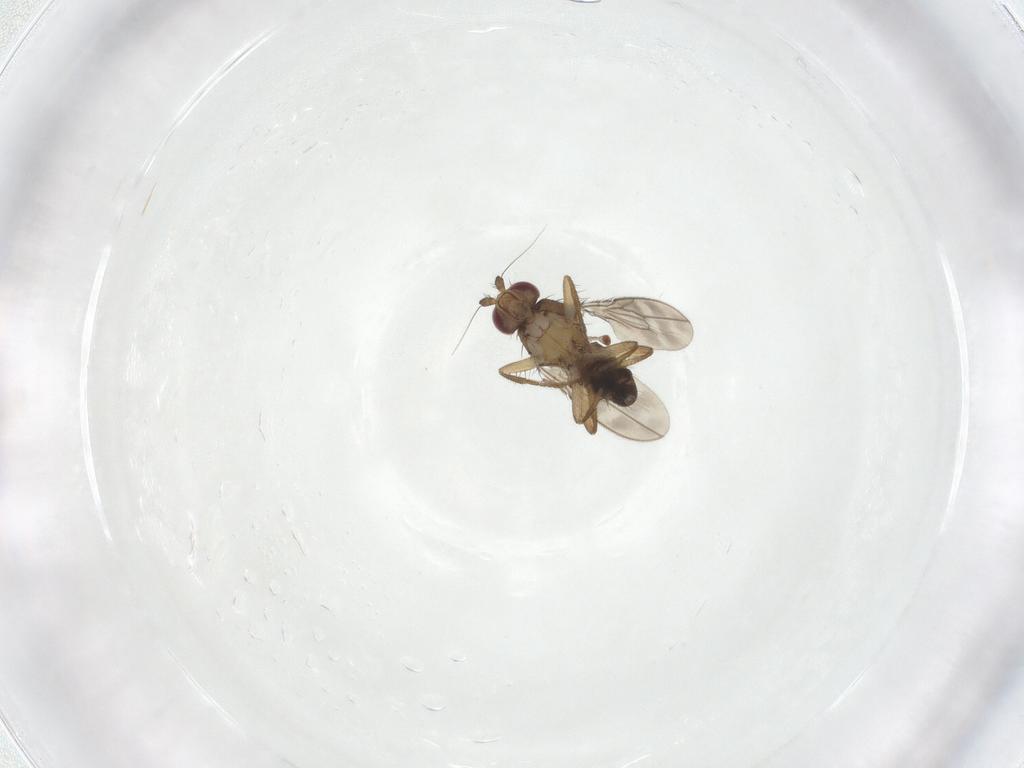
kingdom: Animalia
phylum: Arthropoda
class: Insecta
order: Diptera
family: Sphaeroceridae
